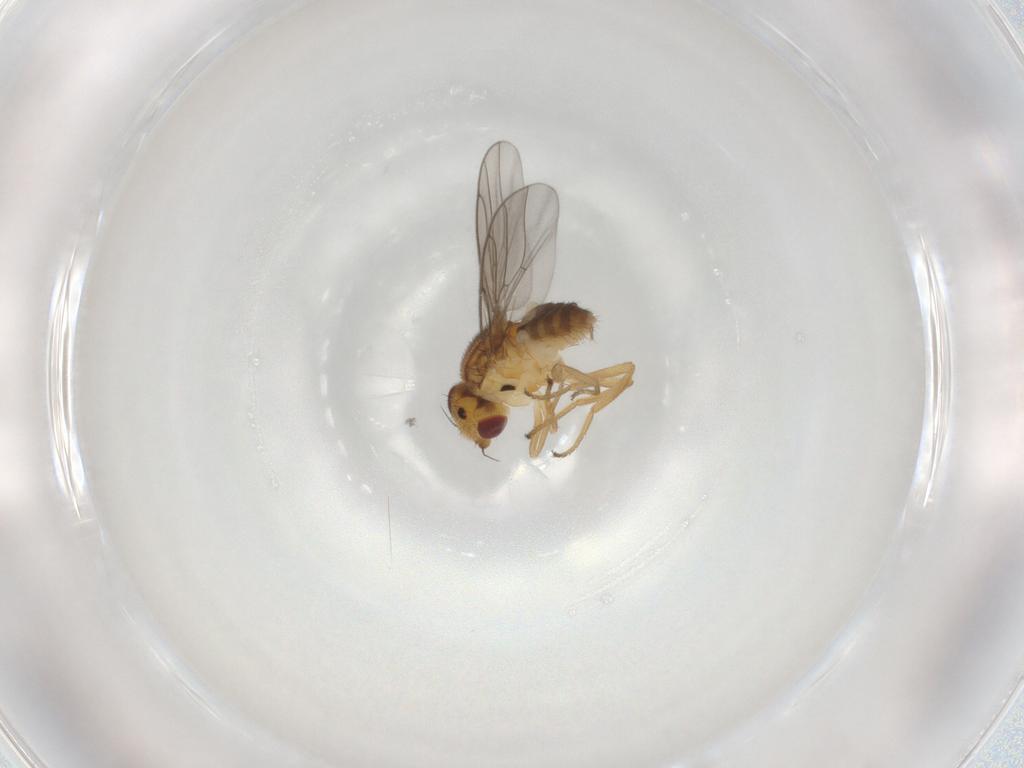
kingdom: Animalia
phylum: Arthropoda
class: Insecta
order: Diptera
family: Chloropidae
